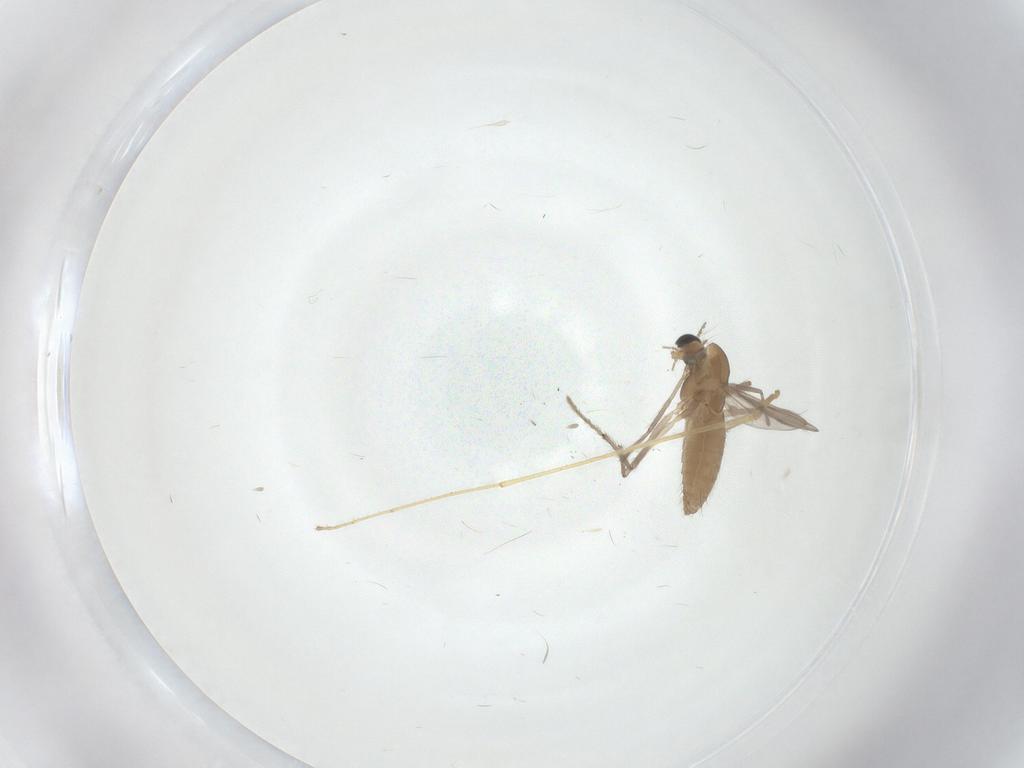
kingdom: Animalia
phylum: Arthropoda
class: Insecta
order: Diptera
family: Chironomidae
